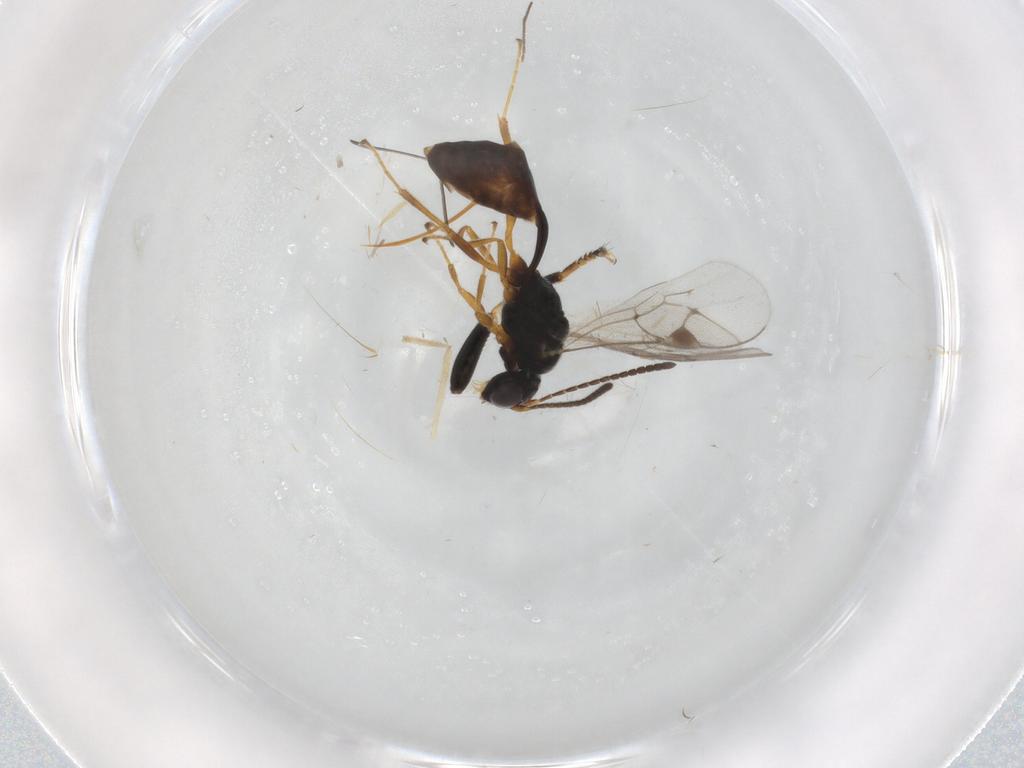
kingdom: Animalia
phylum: Arthropoda
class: Insecta
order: Hymenoptera
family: Ichneumonidae
